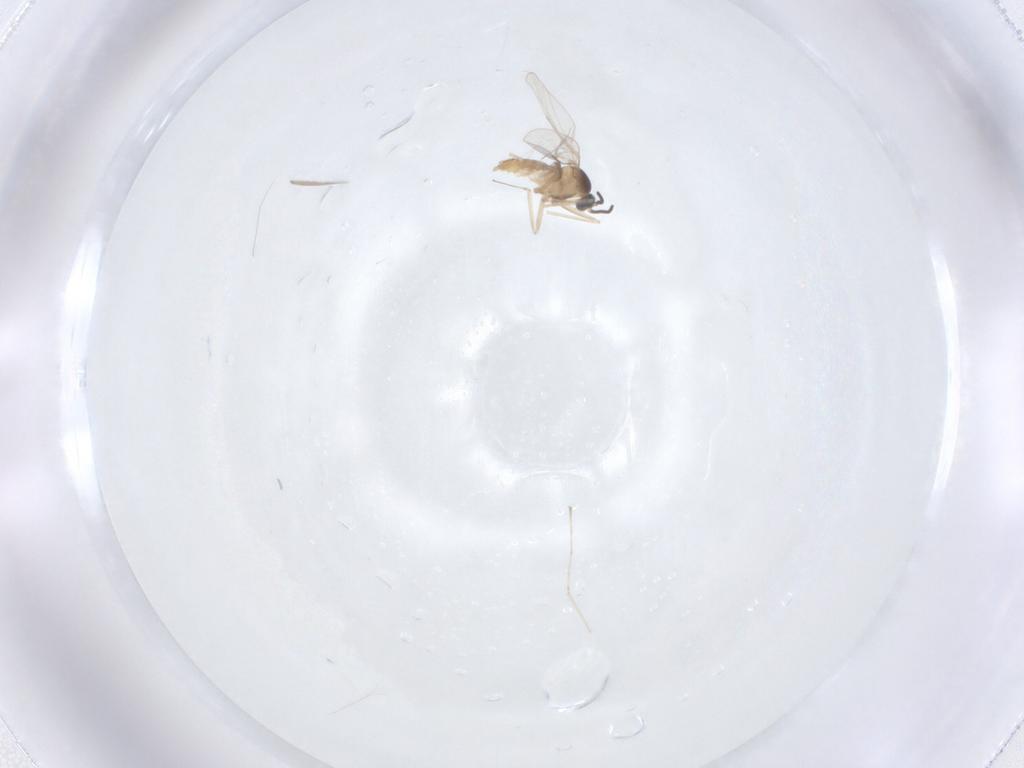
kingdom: Animalia
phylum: Arthropoda
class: Insecta
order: Diptera
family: Cecidomyiidae
